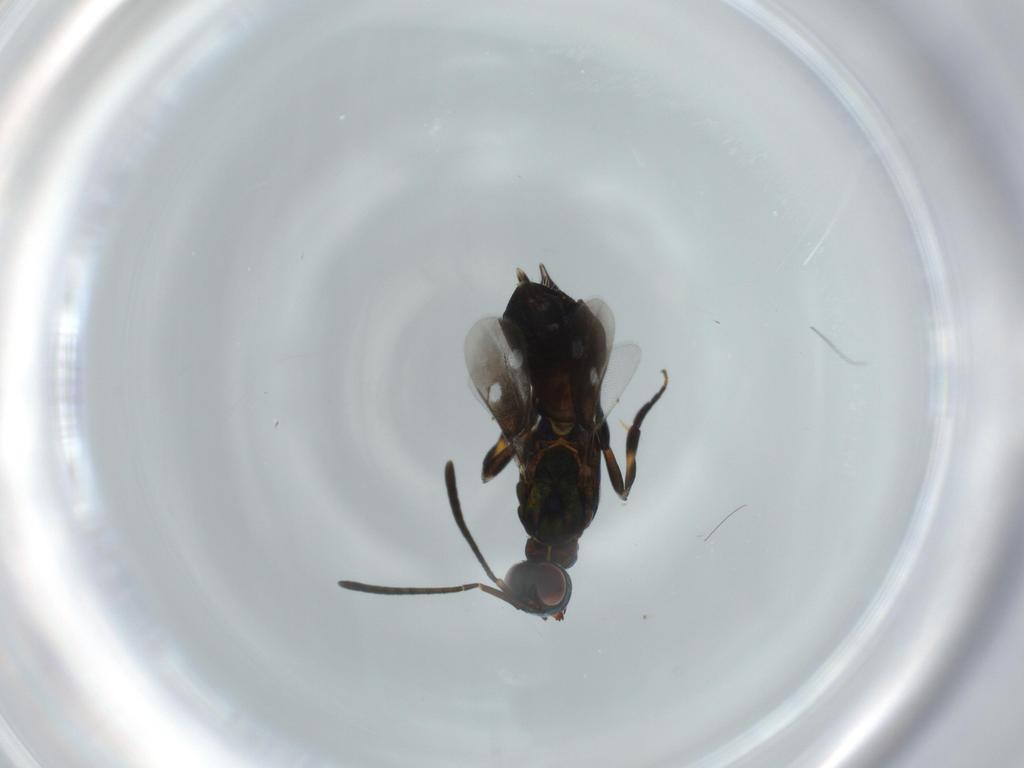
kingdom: Animalia
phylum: Arthropoda
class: Insecta
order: Hymenoptera
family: Eupelmidae
